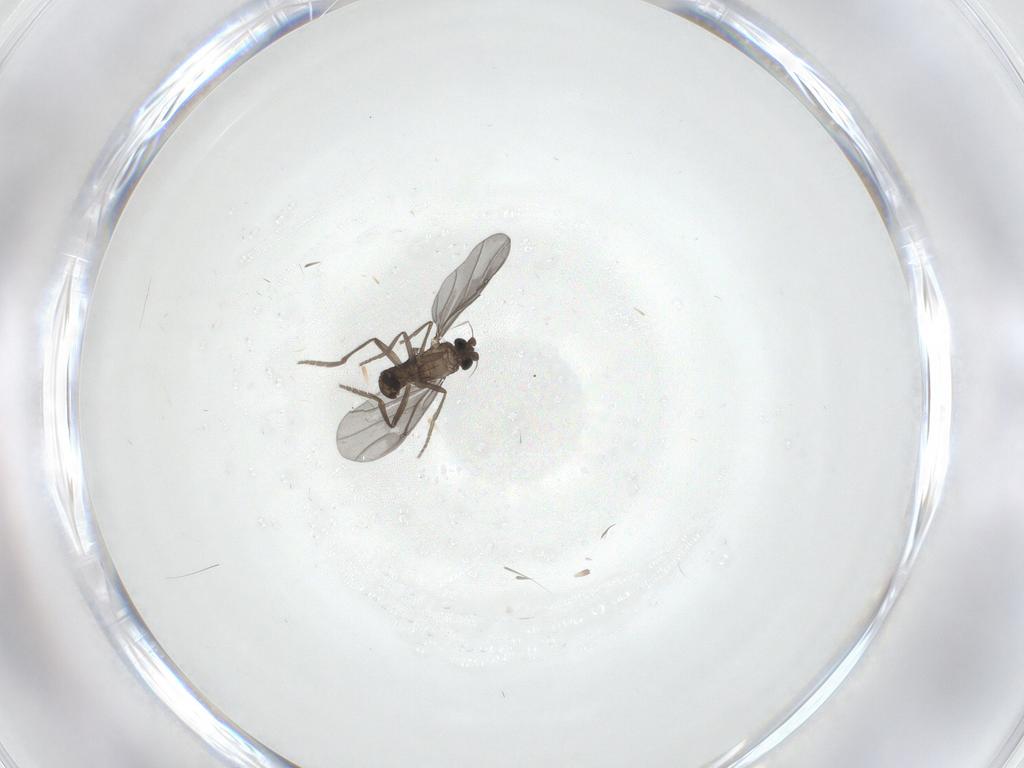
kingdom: Animalia
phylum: Arthropoda
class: Insecta
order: Diptera
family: Phoridae
